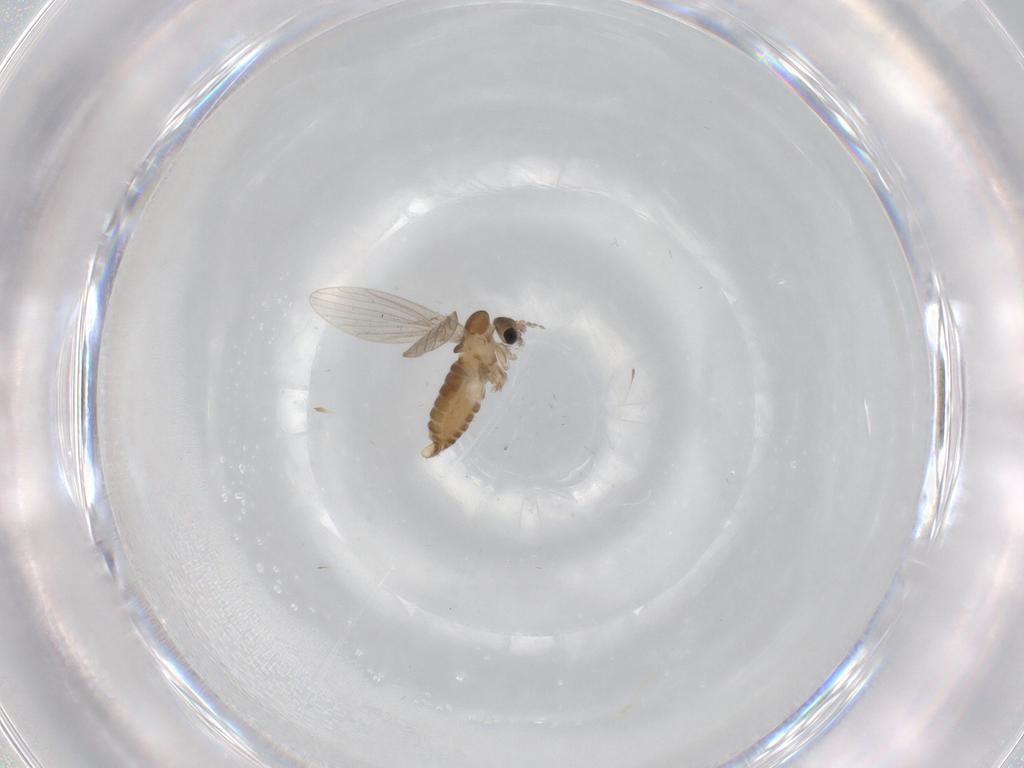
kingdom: Animalia
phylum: Arthropoda
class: Insecta
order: Diptera
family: Psychodidae
